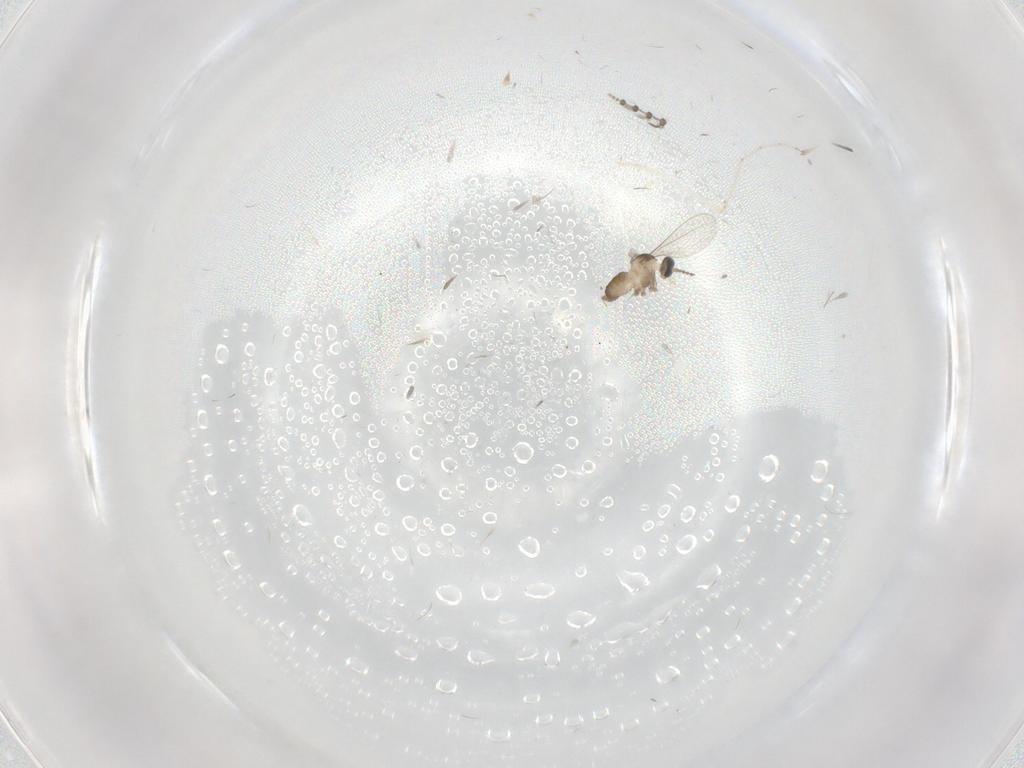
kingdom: Animalia
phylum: Arthropoda
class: Insecta
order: Diptera
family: Cecidomyiidae
